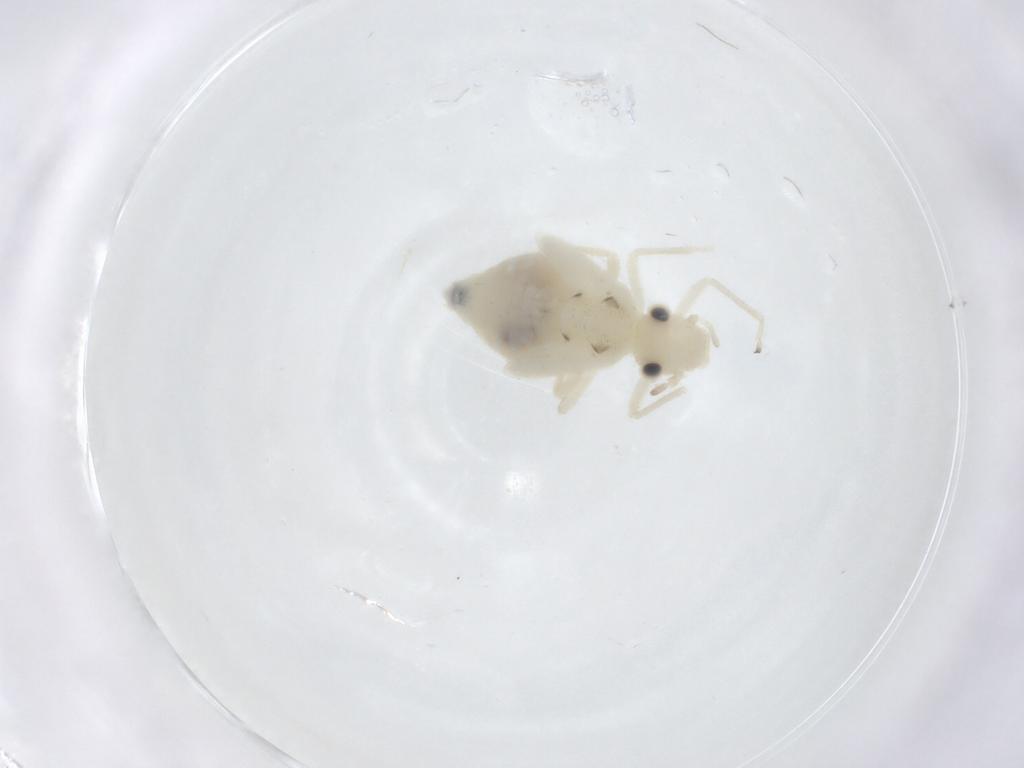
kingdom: Animalia
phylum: Arthropoda
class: Insecta
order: Psocodea
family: Caeciliusidae
